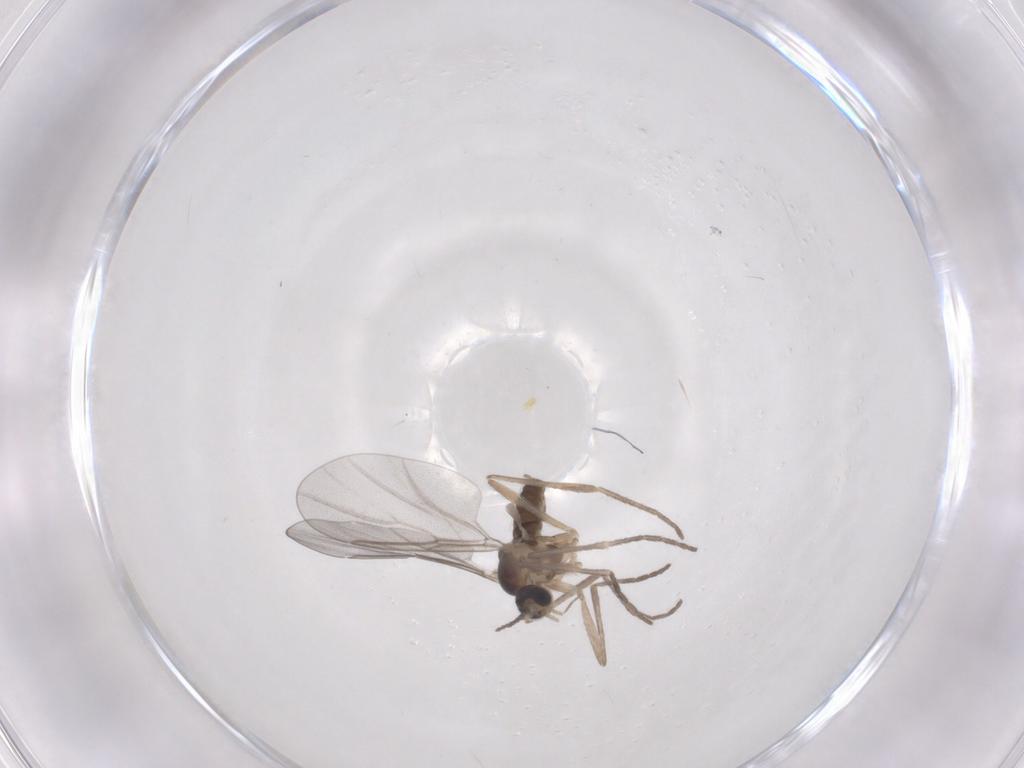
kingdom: Animalia
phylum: Arthropoda
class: Insecta
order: Diptera
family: Cecidomyiidae
